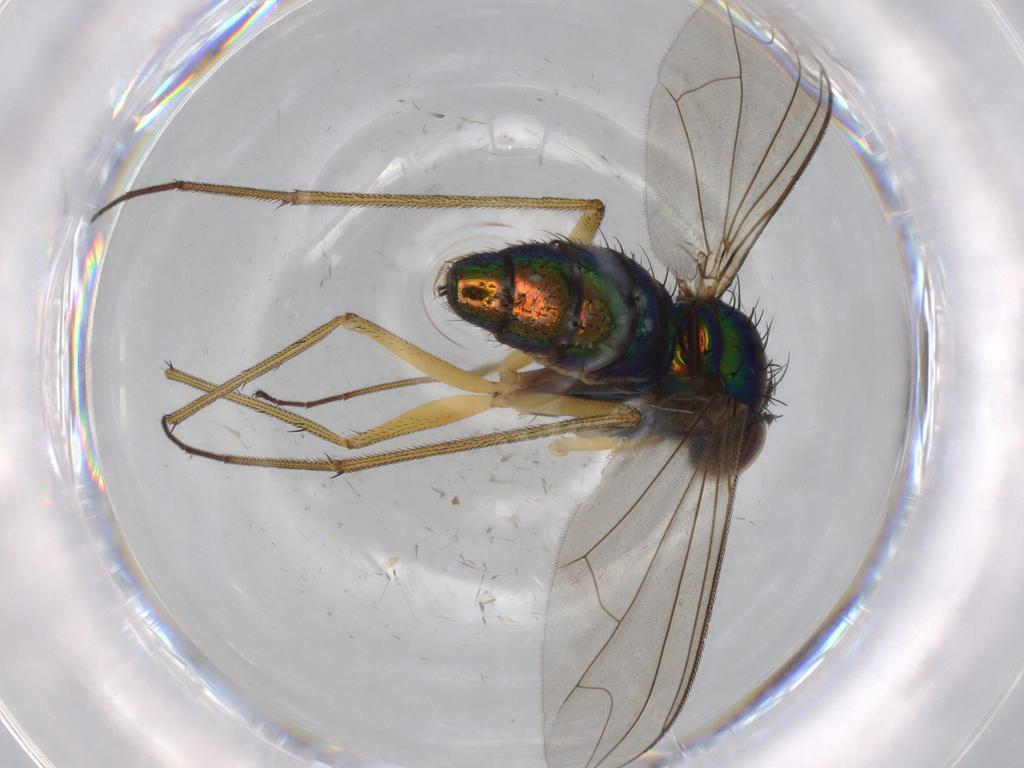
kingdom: Animalia
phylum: Arthropoda
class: Insecta
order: Diptera
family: Dolichopodidae
